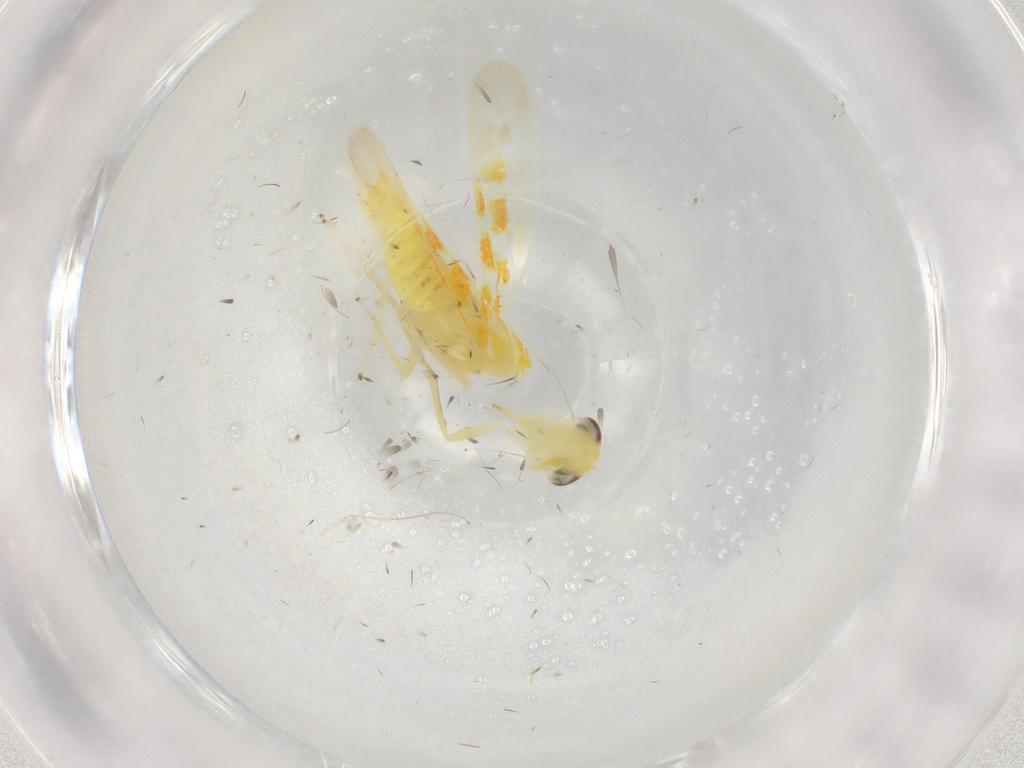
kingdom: Animalia
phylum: Arthropoda
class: Insecta
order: Hemiptera
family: Cicadellidae
